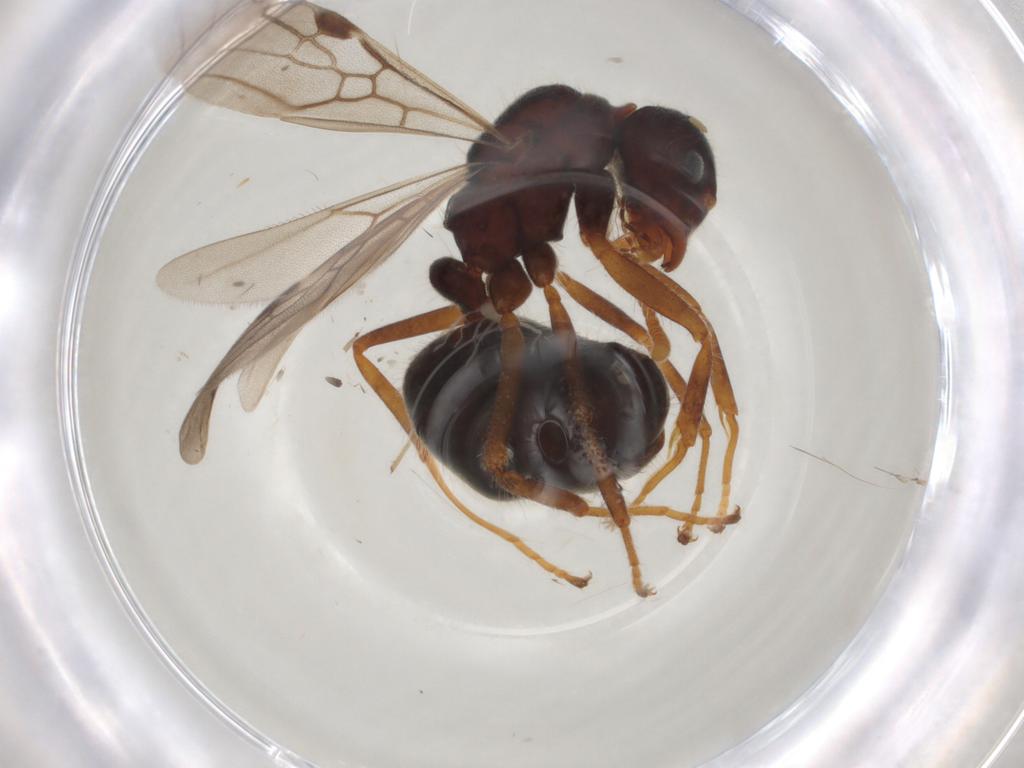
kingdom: Animalia
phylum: Arthropoda
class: Insecta
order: Hymenoptera
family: Formicidae
